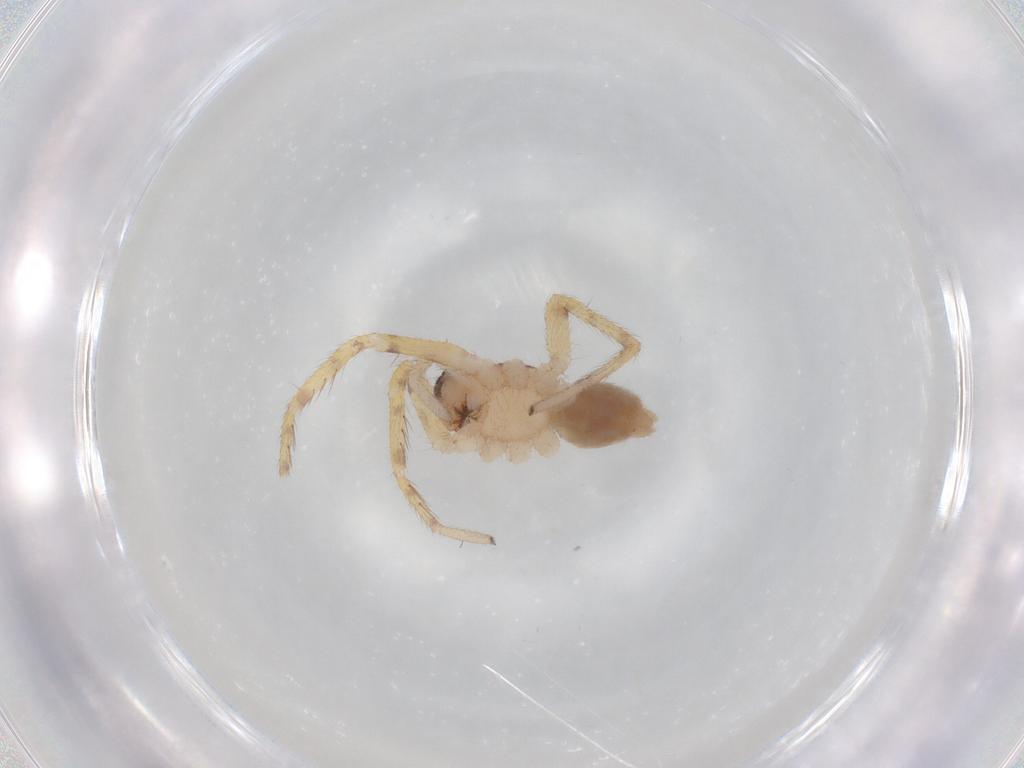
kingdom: Animalia
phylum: Arthropoda
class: Arachnida
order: Araneae
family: Corinnidae
